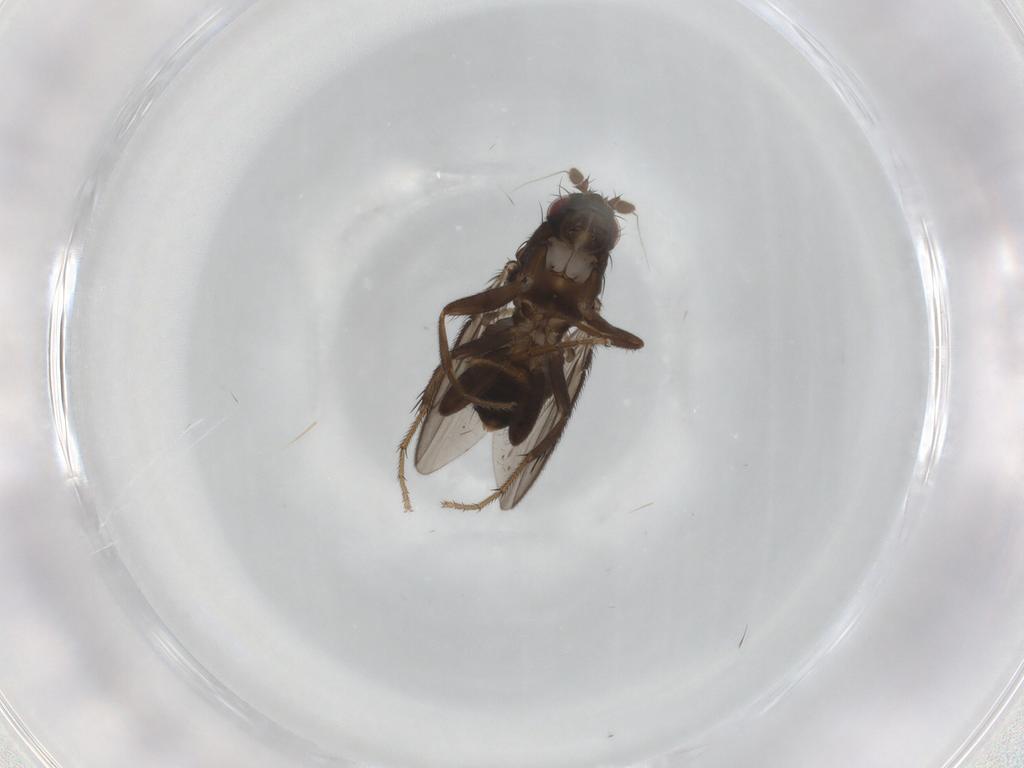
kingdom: Animalia
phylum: Arthropoda
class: Insecta
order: Diptera
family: Sphaeroceridae
